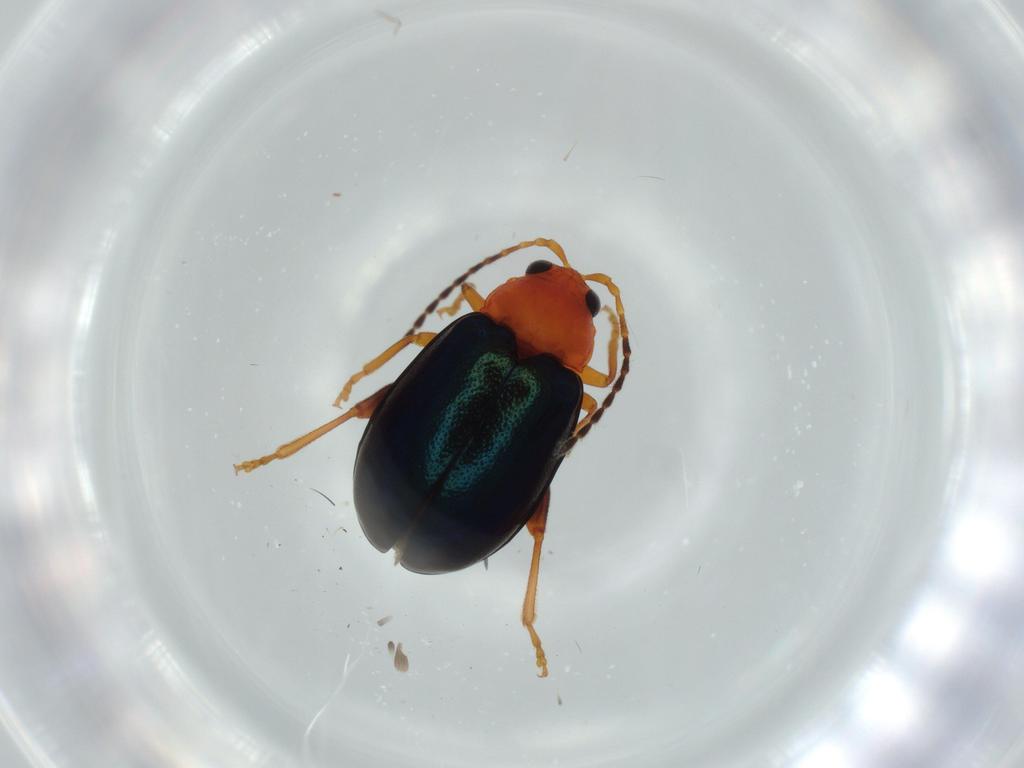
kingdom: Animalia
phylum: Arthropoda
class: Insecta
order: Coleoptera
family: Chrysomelidae
